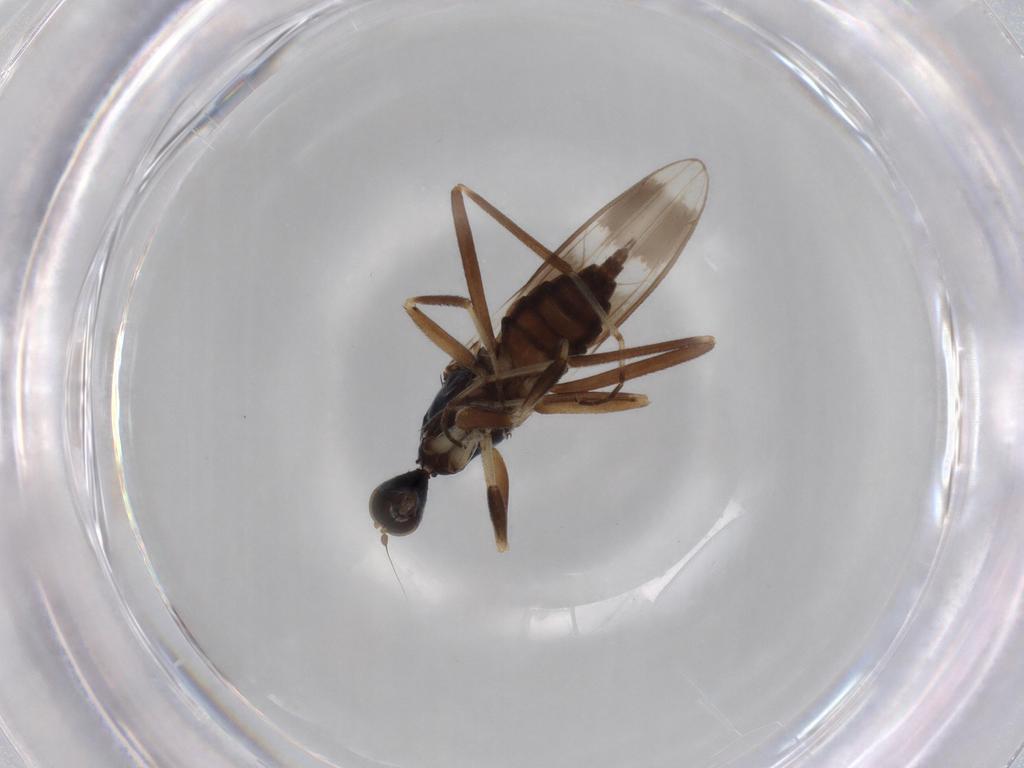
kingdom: Animalia
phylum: Arthropoda
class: Insecta
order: Diptera
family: Hybotidae
